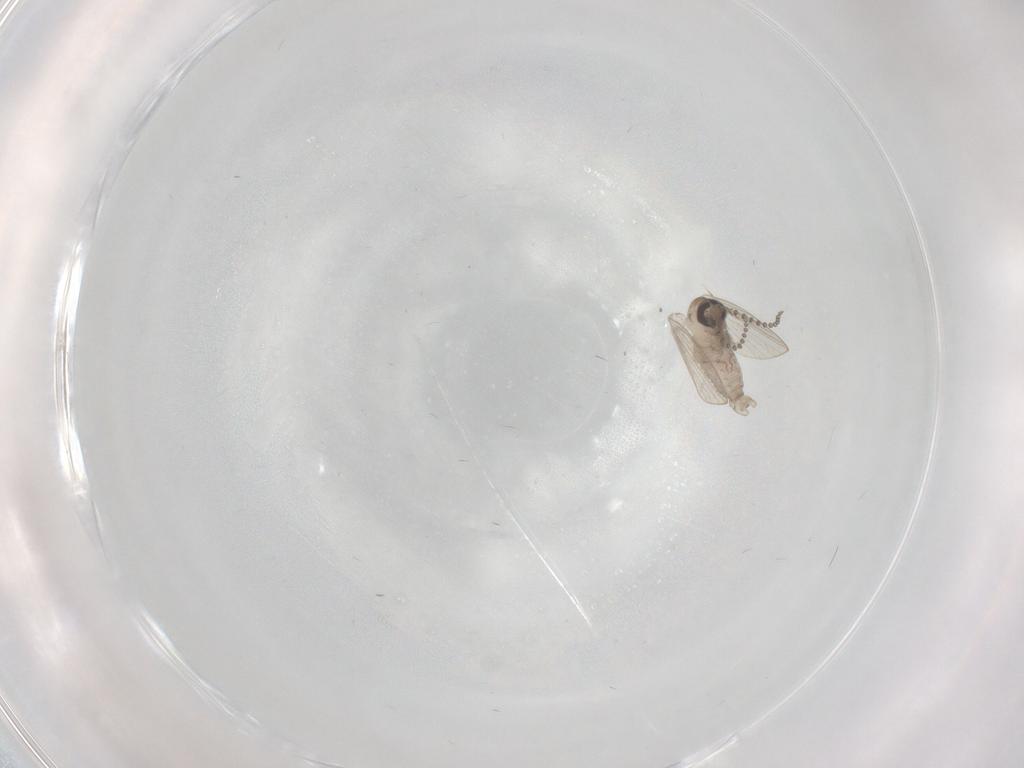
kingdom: Animalia
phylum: Arthropoda
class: Insecta
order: Diptera
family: Psychodidae
